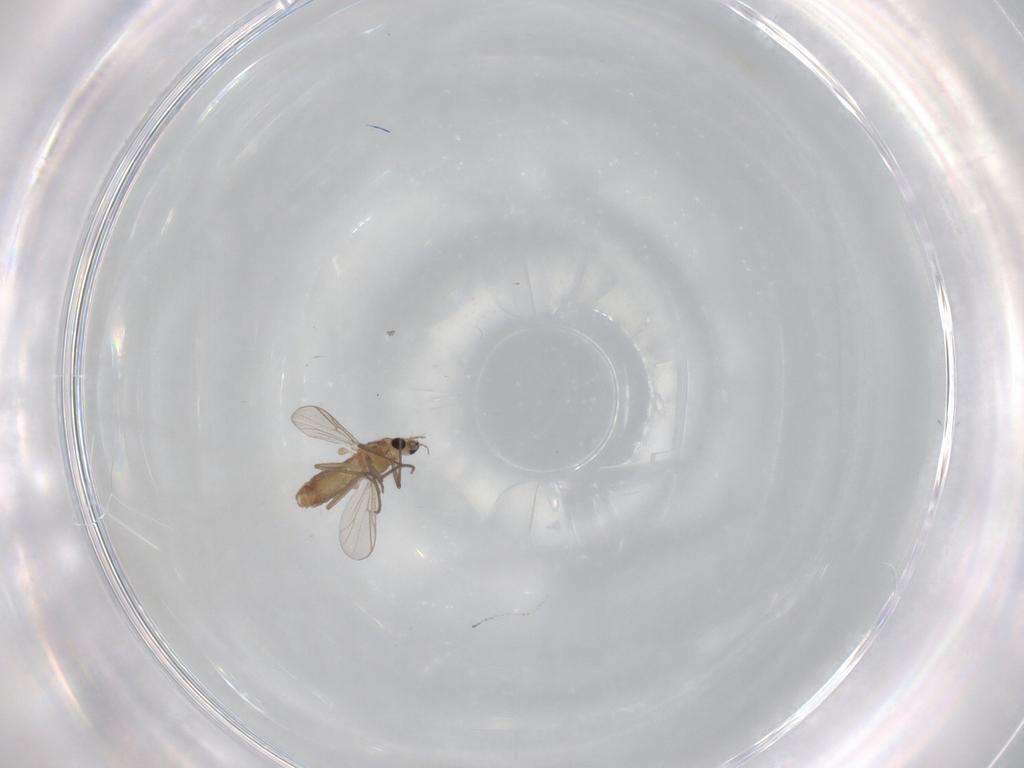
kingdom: Animalia
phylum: Arthropoda
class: Insecta
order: Diptera
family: Chironomidae
